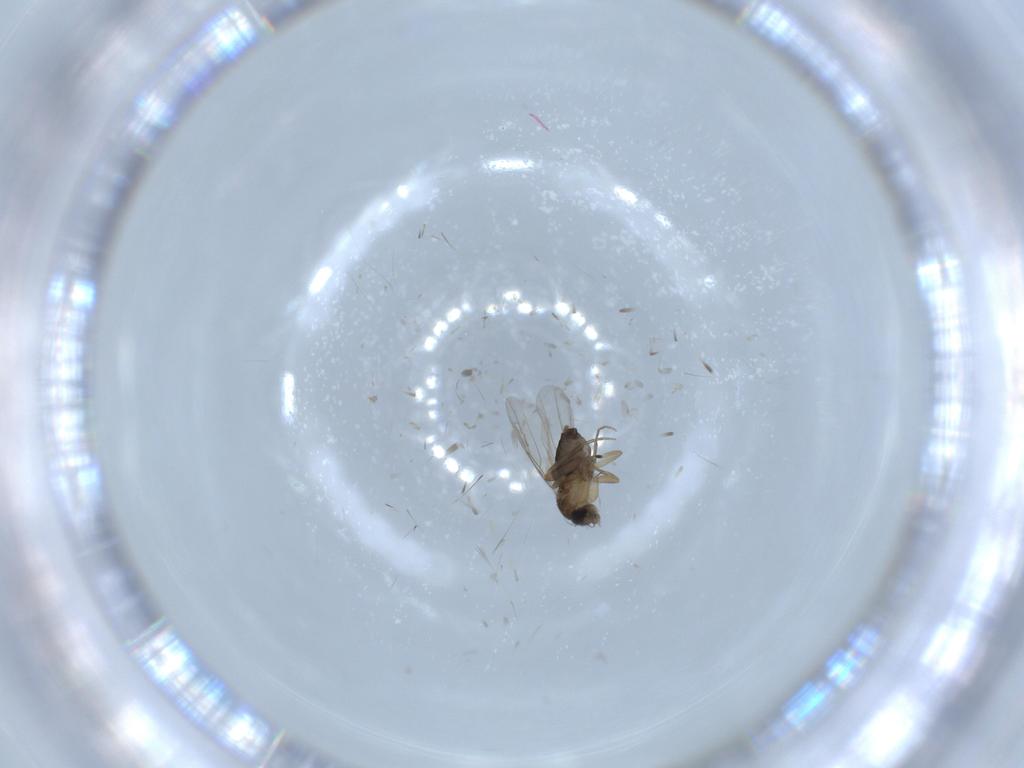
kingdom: Animalia
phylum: Arthropoda
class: Insecta
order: Diptera
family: Phoridae
